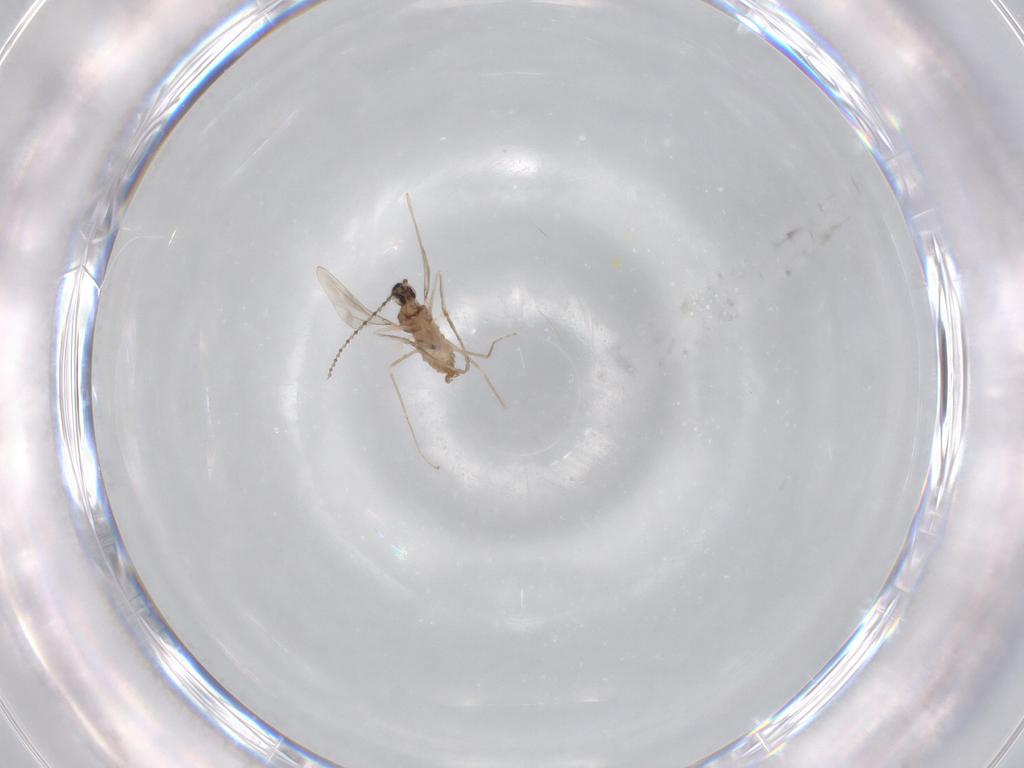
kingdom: Animalia
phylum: Arthropoda
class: Insecta
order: Diptera
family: Cecidomyiidae
